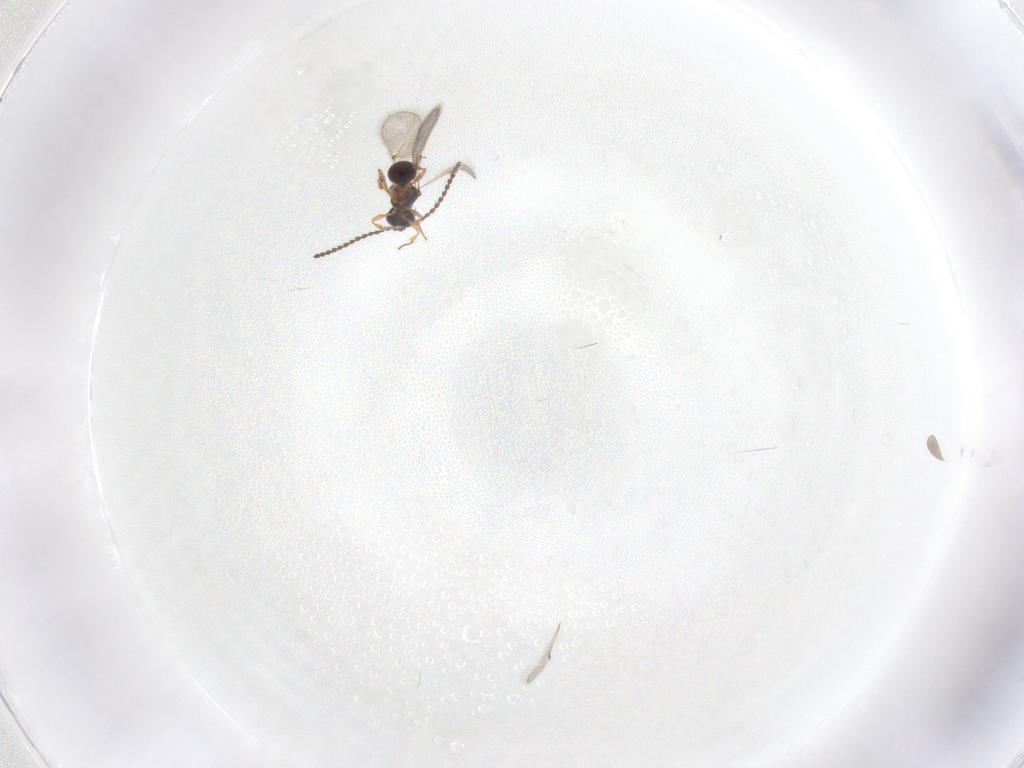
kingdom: Animalia
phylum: Arthropoda
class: Insecta
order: Hymenoptera
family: Diapriidae
